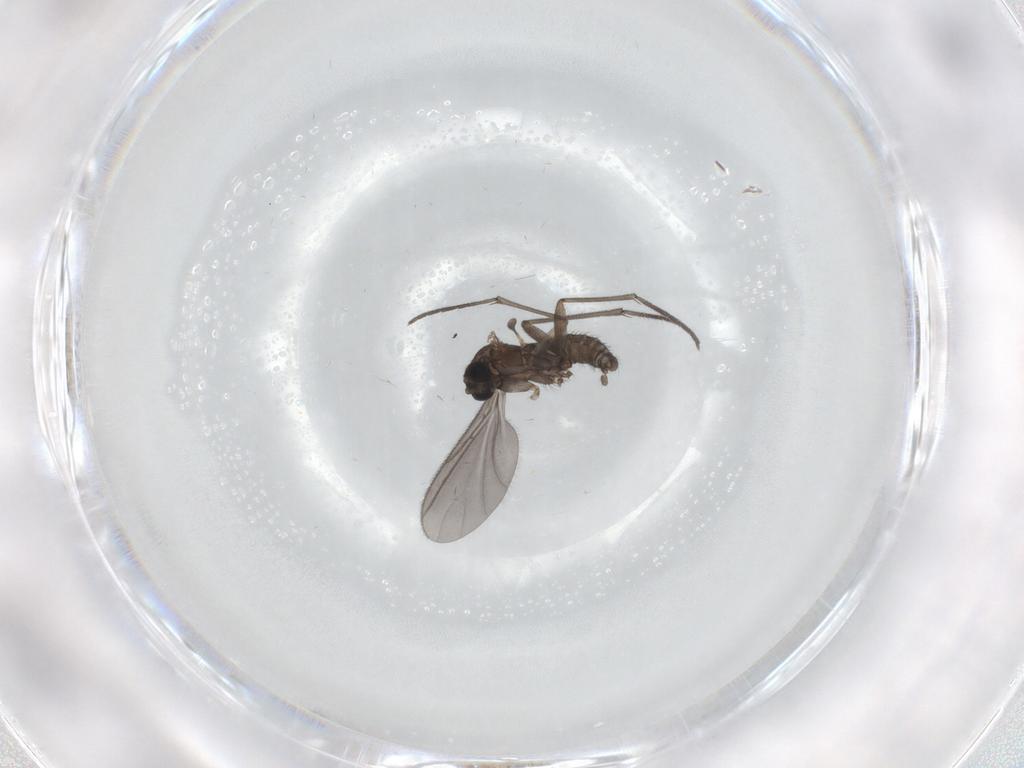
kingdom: Animalia
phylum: Arthropoda
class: Insecta
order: Diptera
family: Sciaridae
